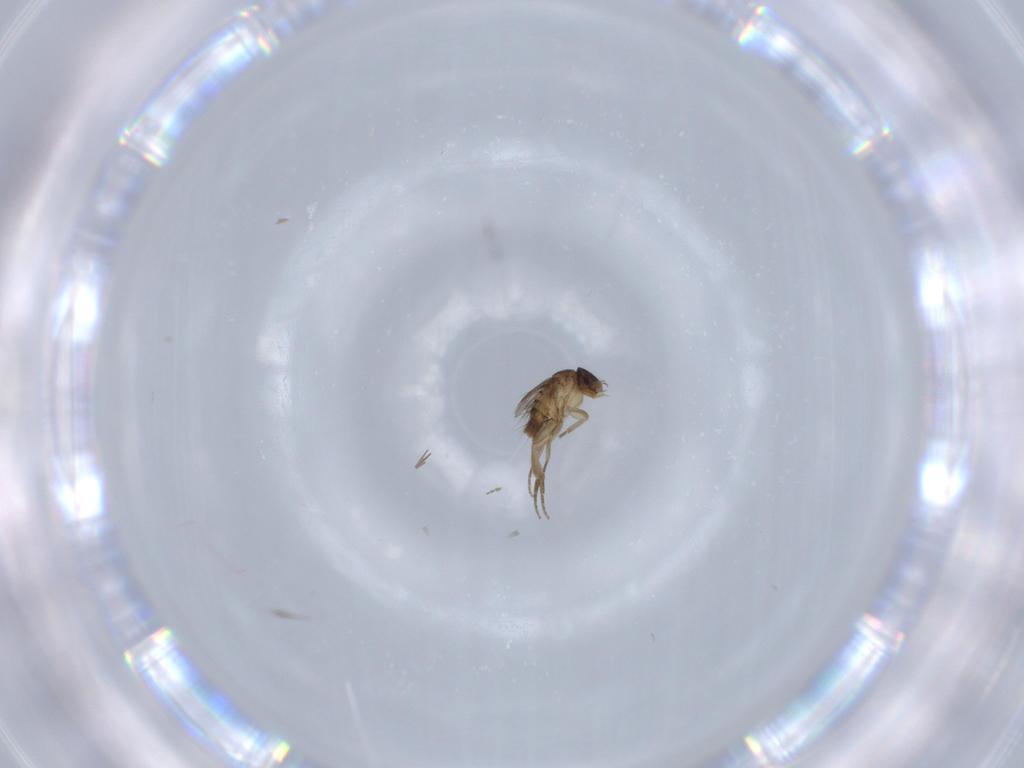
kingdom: Animalia
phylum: Arthropoda
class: Insecta
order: Diptera
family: Phoridae
